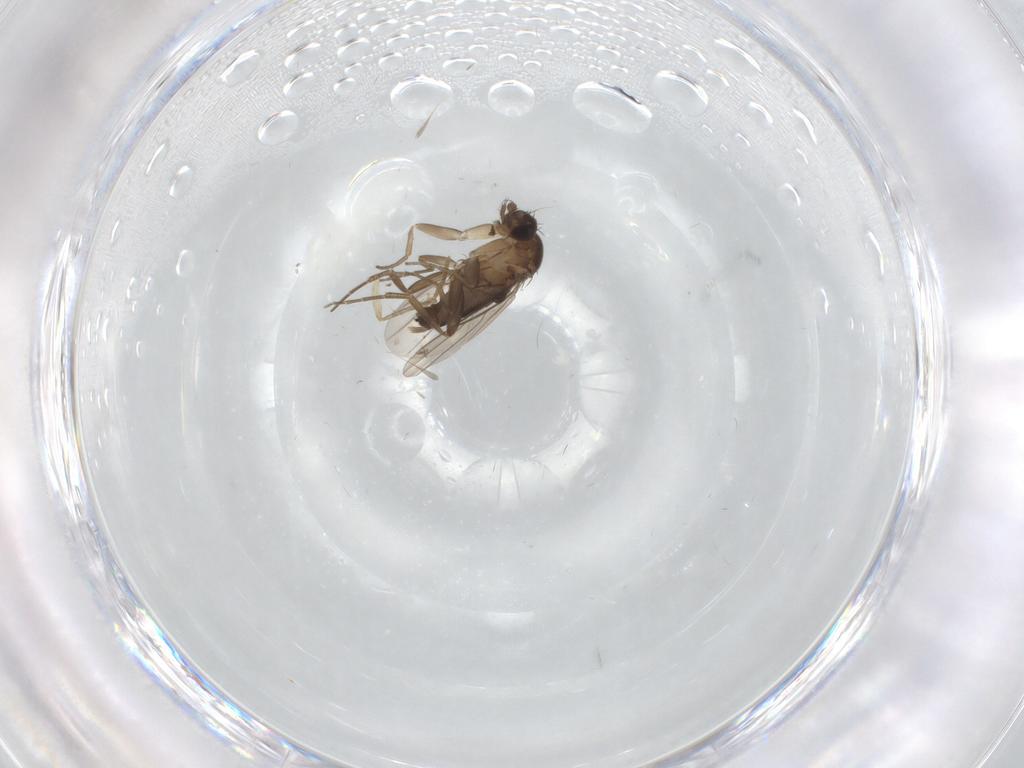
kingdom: Animalia
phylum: Arthropoda
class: Insecta
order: Diptera
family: Phoridae
